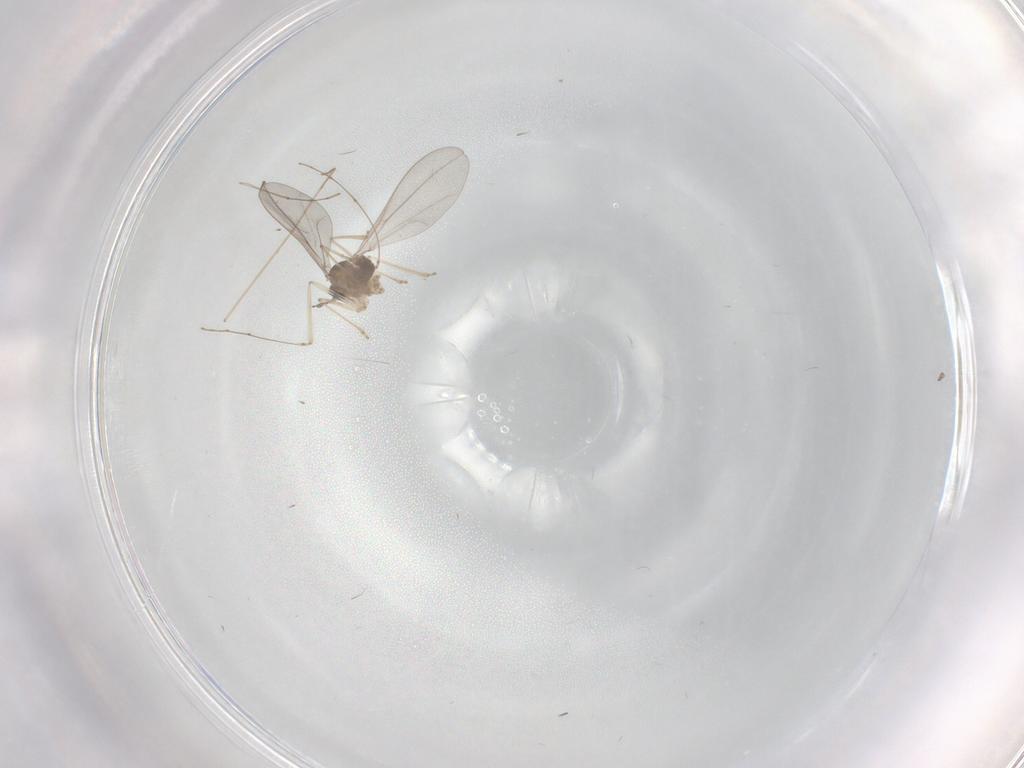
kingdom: Animalia
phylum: Arthropoda
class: Insecta
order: Diptera
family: Cecidomyiidae
